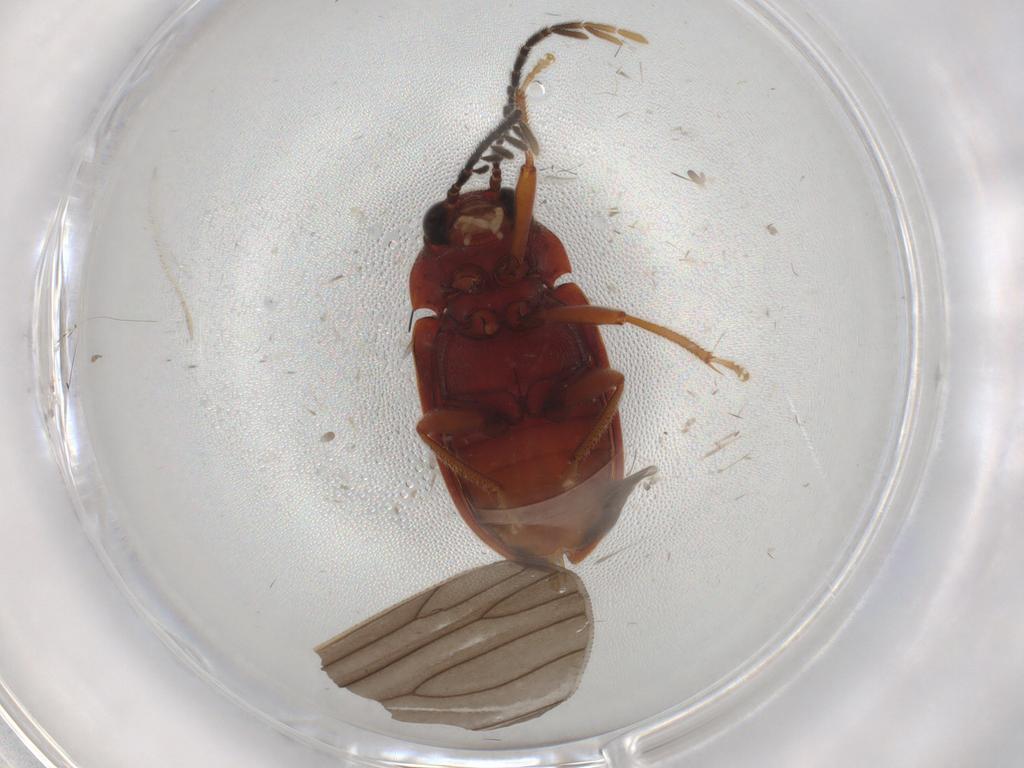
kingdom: Animalia
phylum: Arthropoda
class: Insecta
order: Coleoptera
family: Ptilodactylidae
